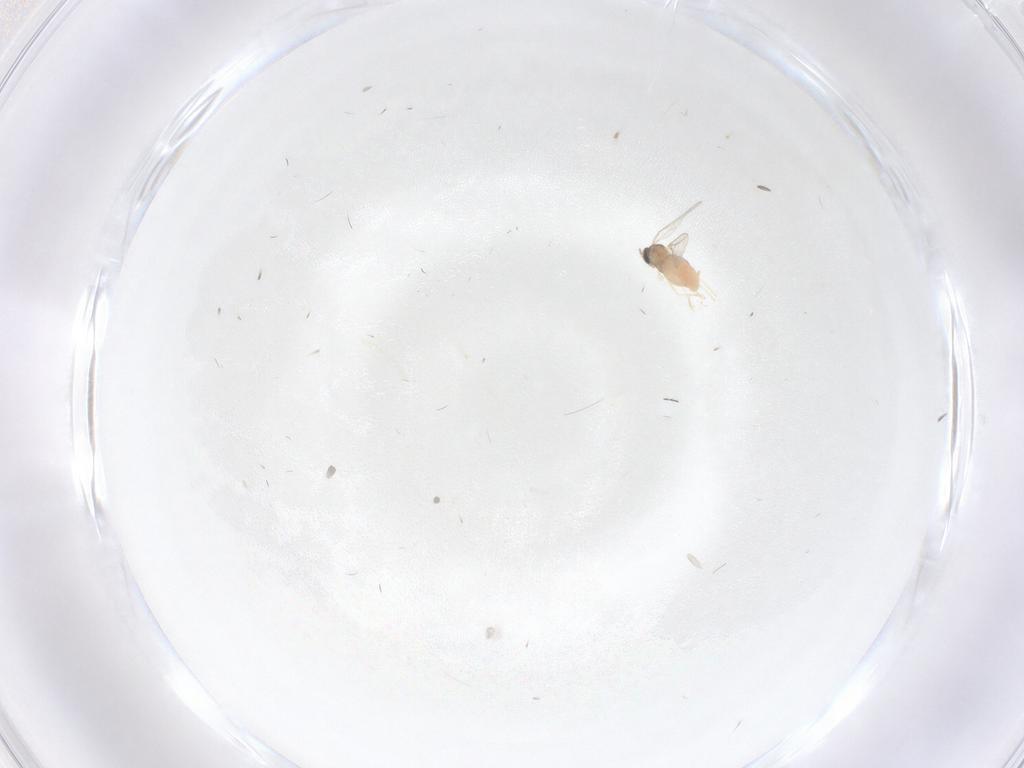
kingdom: Animalia
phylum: Arthropoda
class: Insecta
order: Diptera
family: Cecidomyiidae
